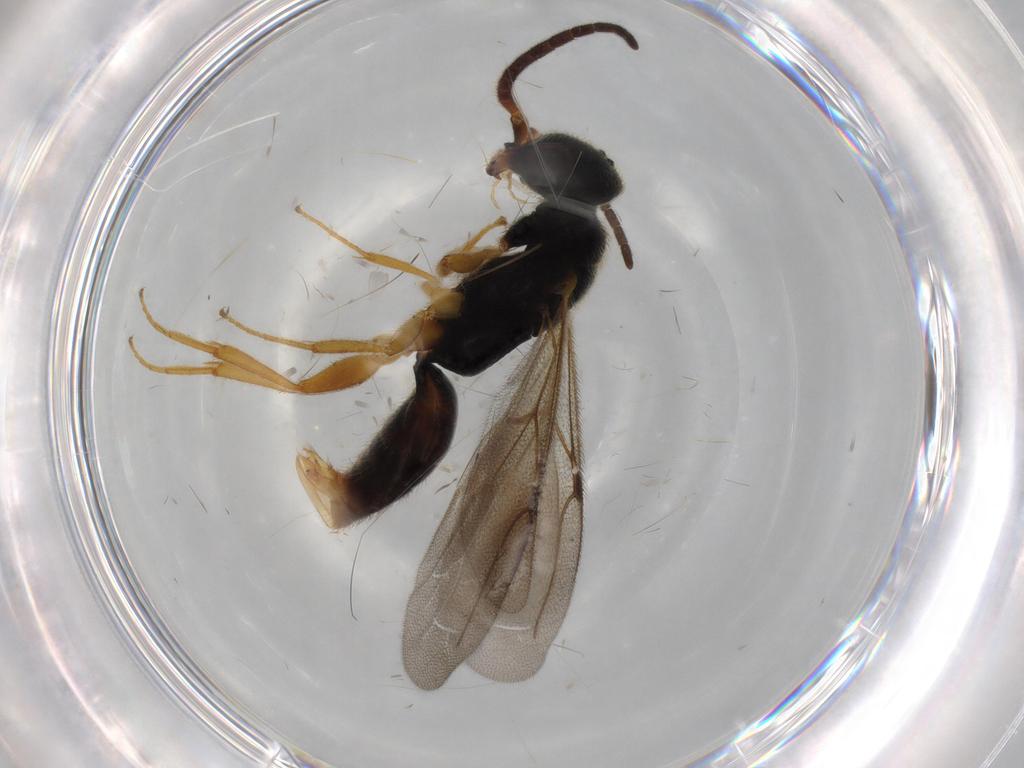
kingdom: Animalia
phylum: Arthropoda
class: Insecta
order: Hymenoptera
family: Bethylidae
